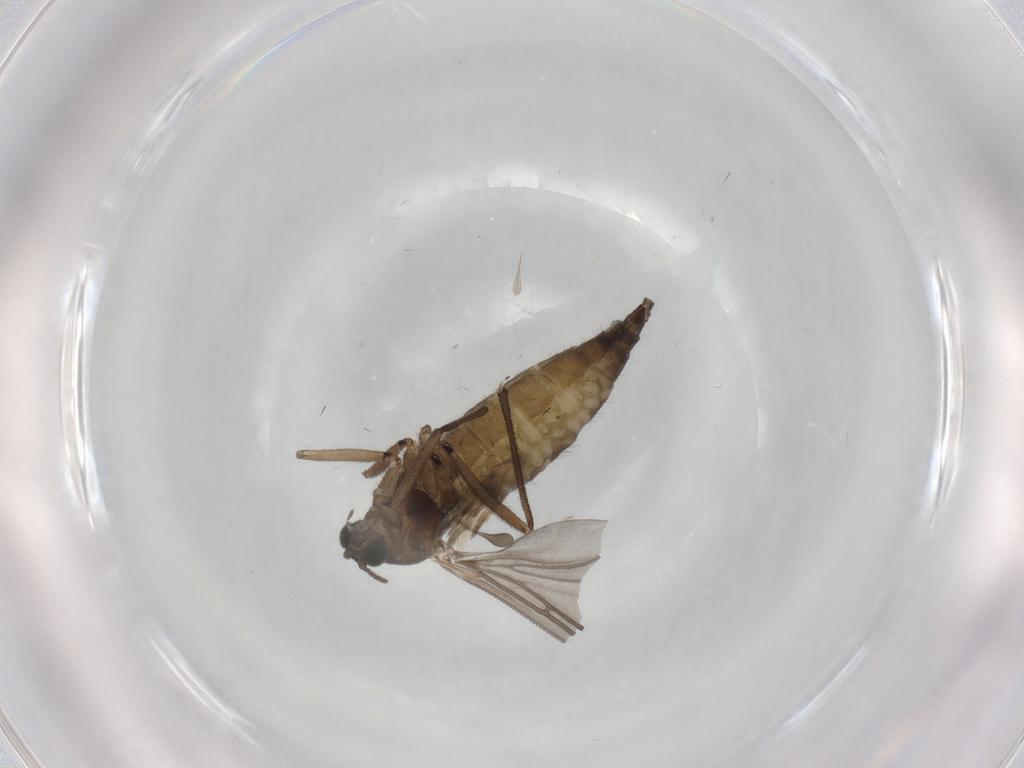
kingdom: Animalia
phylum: Arthropoda
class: Insecta
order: Diptera
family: Sciaridae
